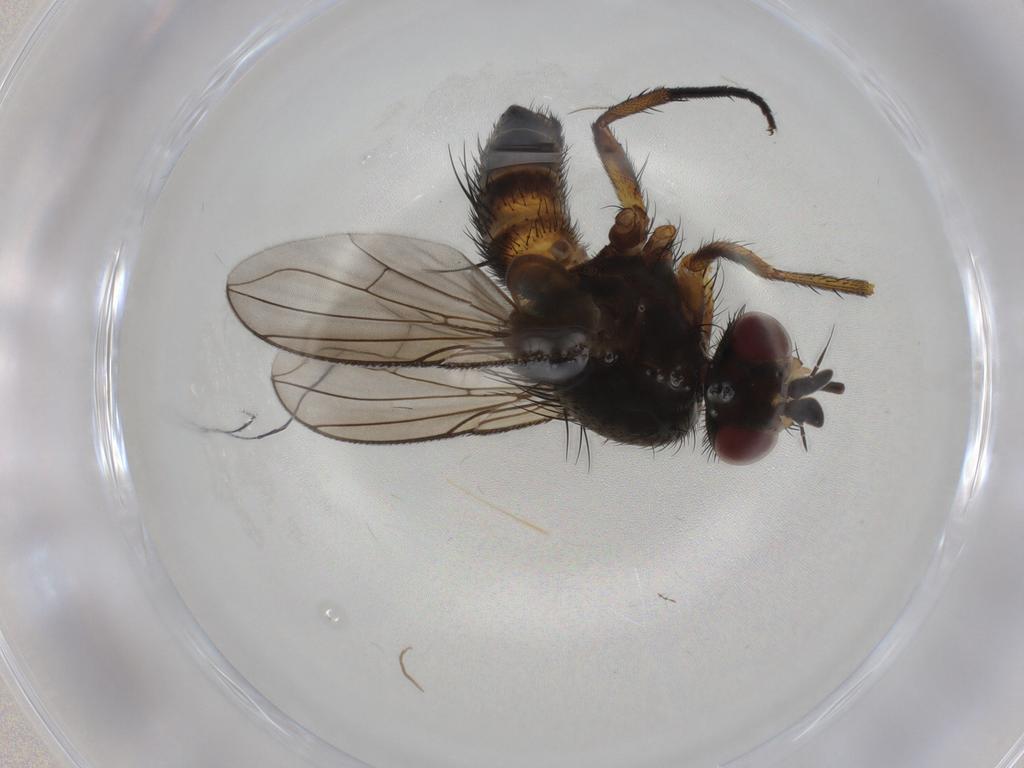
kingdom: Animalia
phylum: Arthropoda
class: Insecta
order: Diptera
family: Tachinidae
